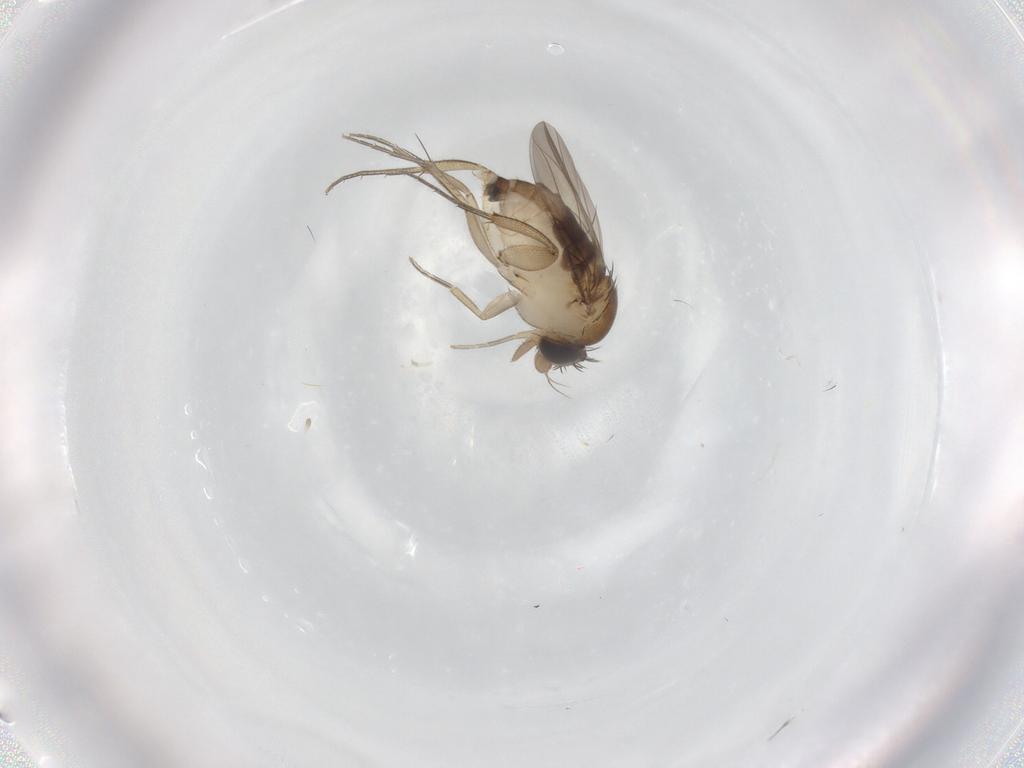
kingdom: Animalia
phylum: Arthropoda
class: Insecta
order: Diptera
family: Phoridae
